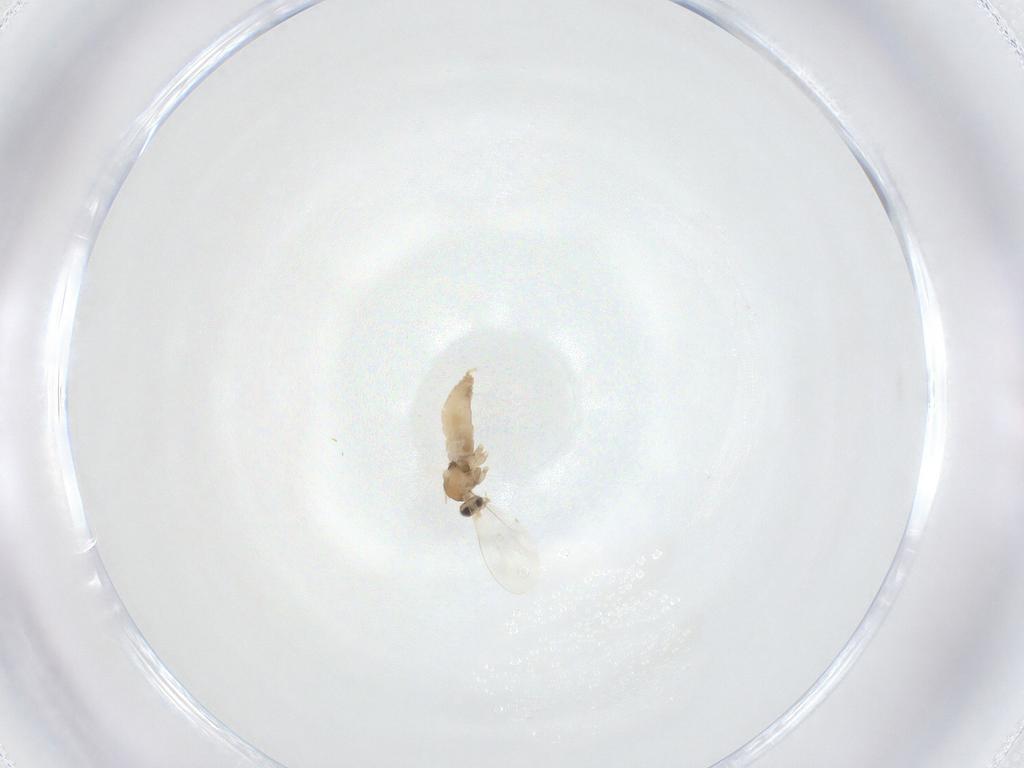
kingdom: Animalia
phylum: Arthropoda
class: Insecta
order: Diptera
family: Cecidomyiidae
